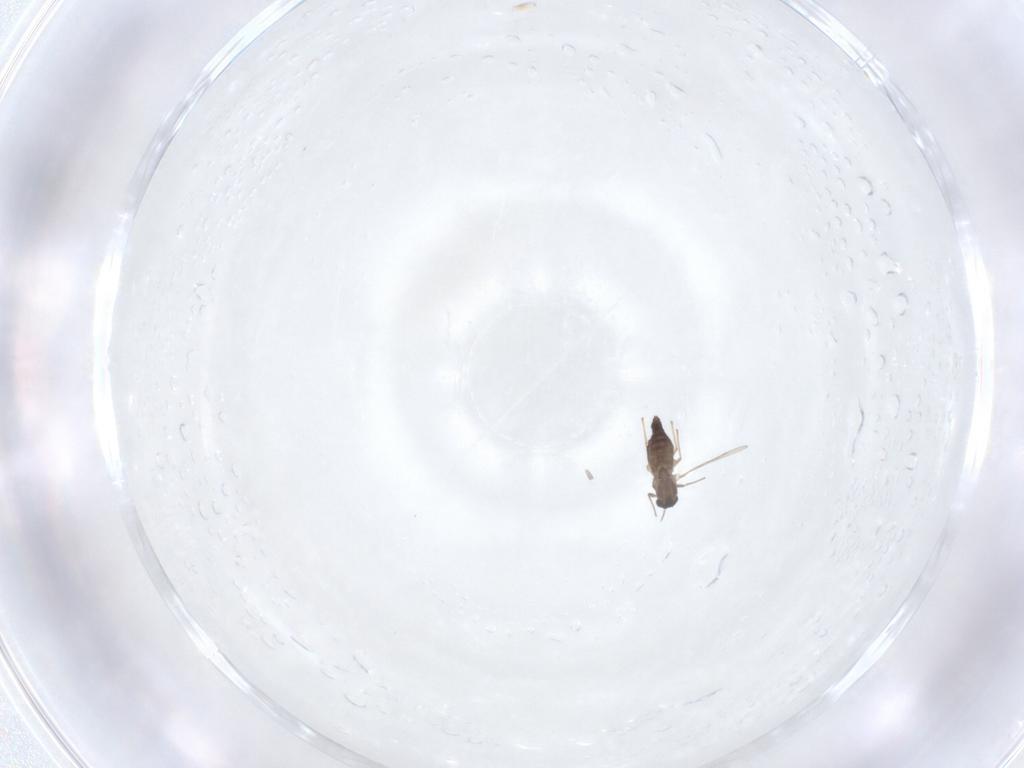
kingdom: Animalia
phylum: Arthropoda
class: Insecta
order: Diptera
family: Chironomidae
